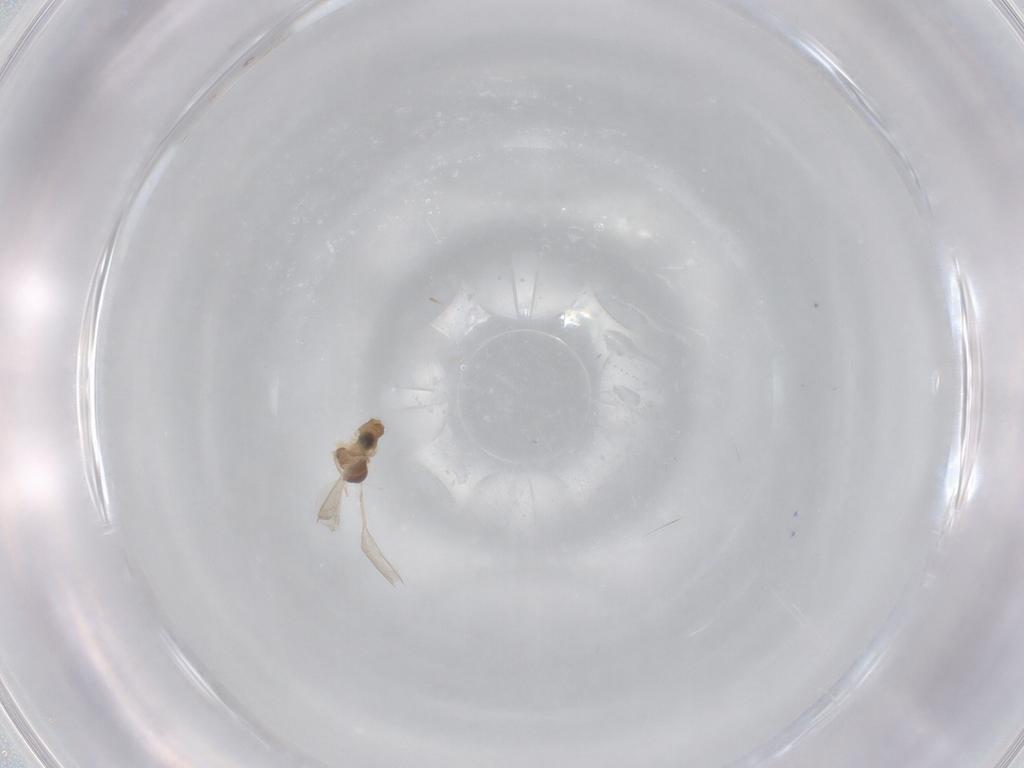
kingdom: Animalia
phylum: Arthropoda
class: Insecta
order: Diptera
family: Cecidomyiidae
